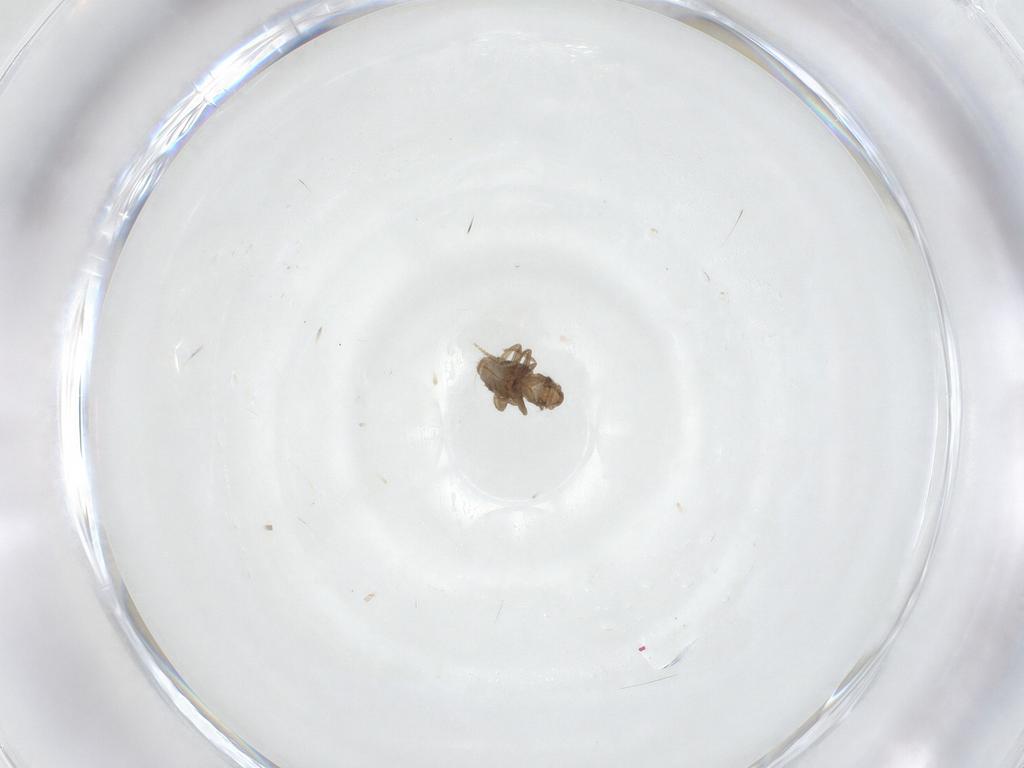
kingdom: Animalia
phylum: Arthropoda
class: Insecta
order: Diptera
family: Phoridae
